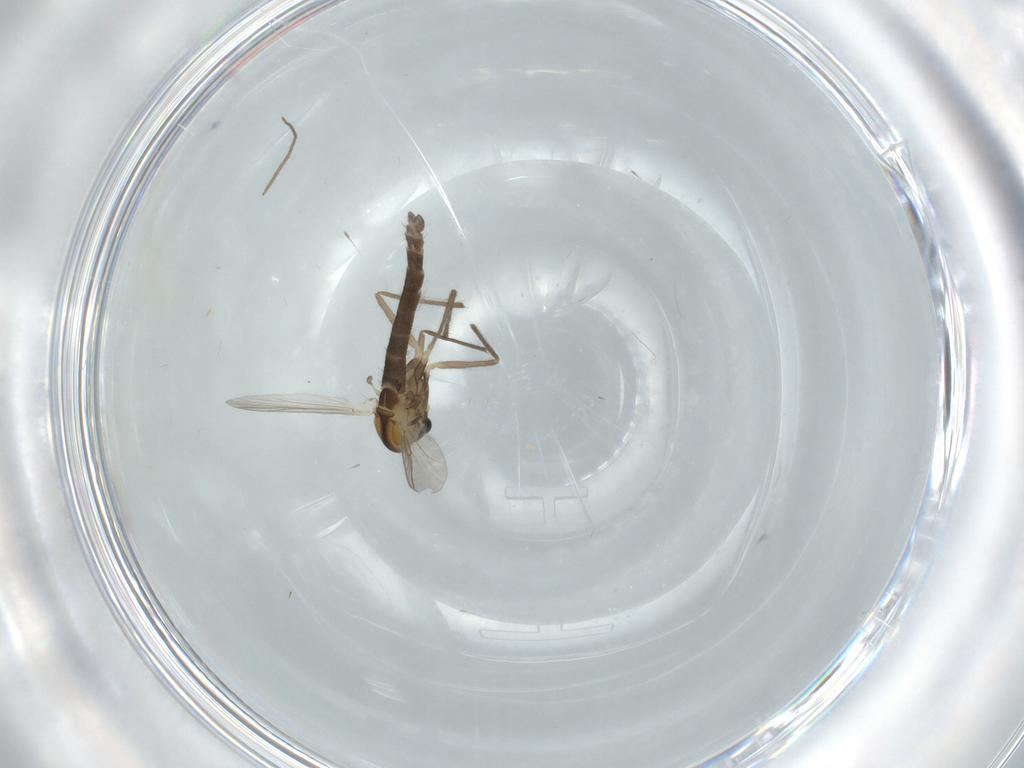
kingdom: Animalia
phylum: Arthropoda
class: Insecta
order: Diptera
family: Chironomidae
